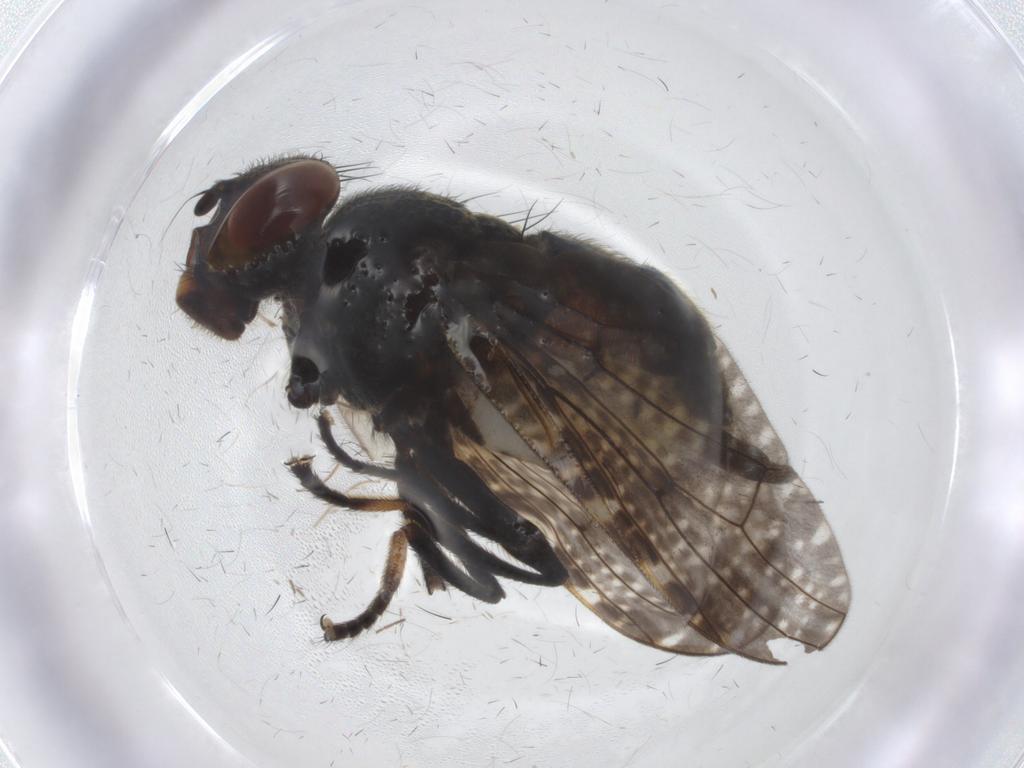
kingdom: Animalia
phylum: Arthropoda
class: Insecta
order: Diptera
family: Platystomatidae
